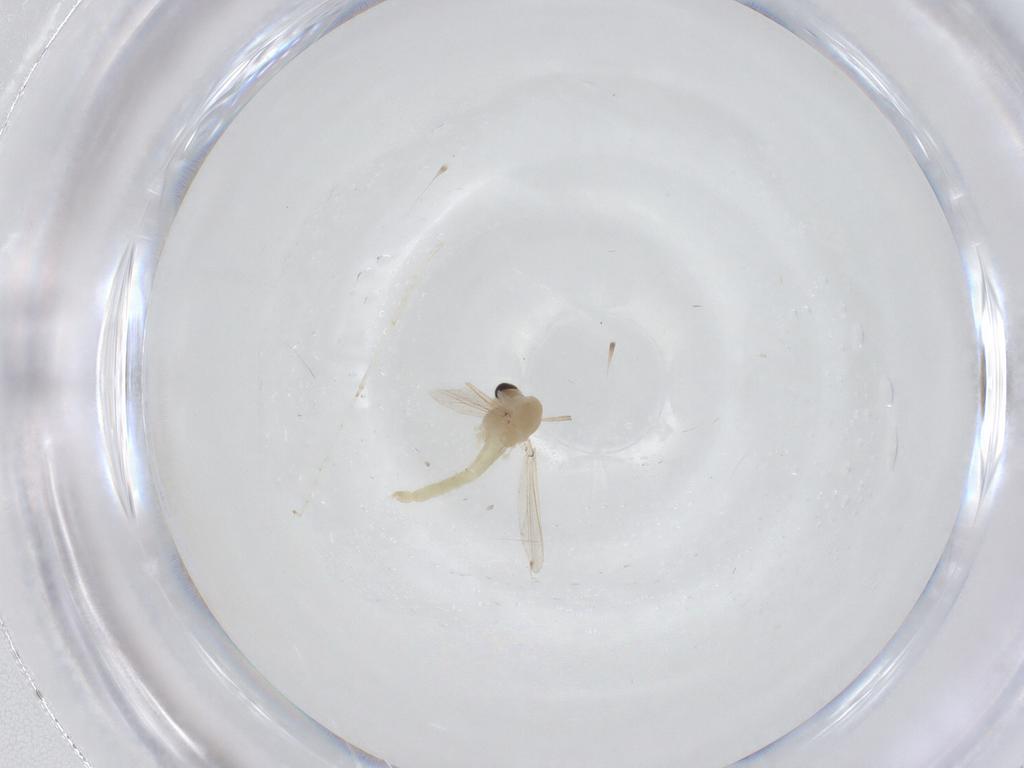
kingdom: Animalia
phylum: Arthropoda
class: Insecta
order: Diptera
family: Chironomidae
